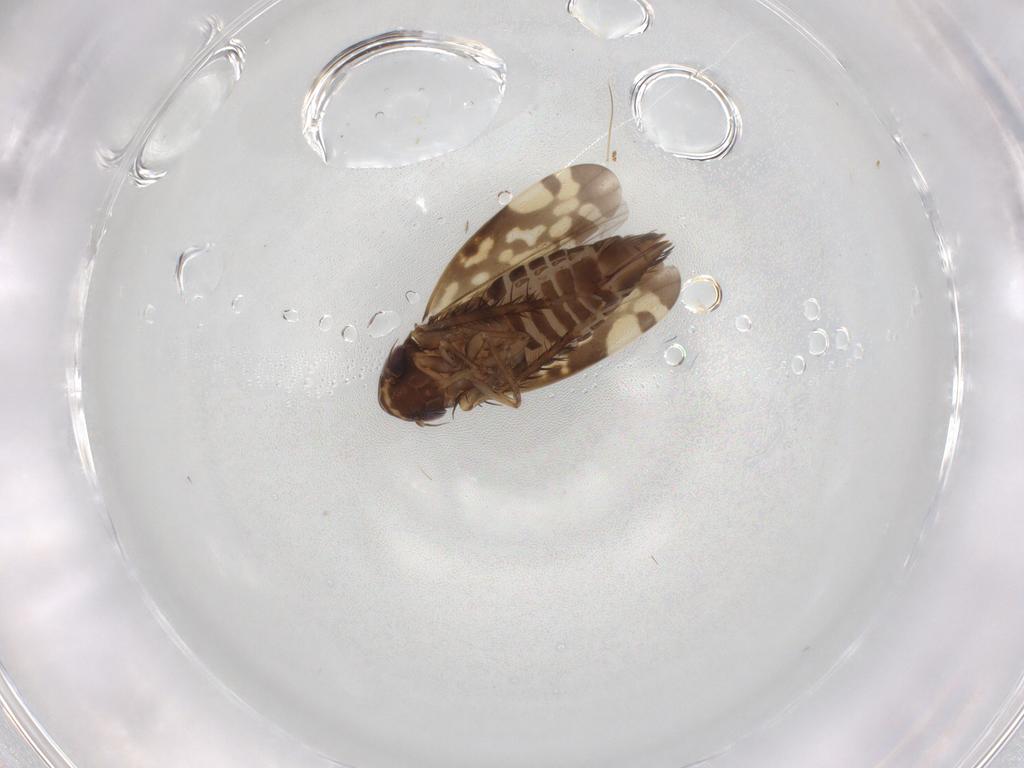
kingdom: Animalia
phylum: Arthropoda
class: Insecta
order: Hemiptera
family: Cicadellidae
